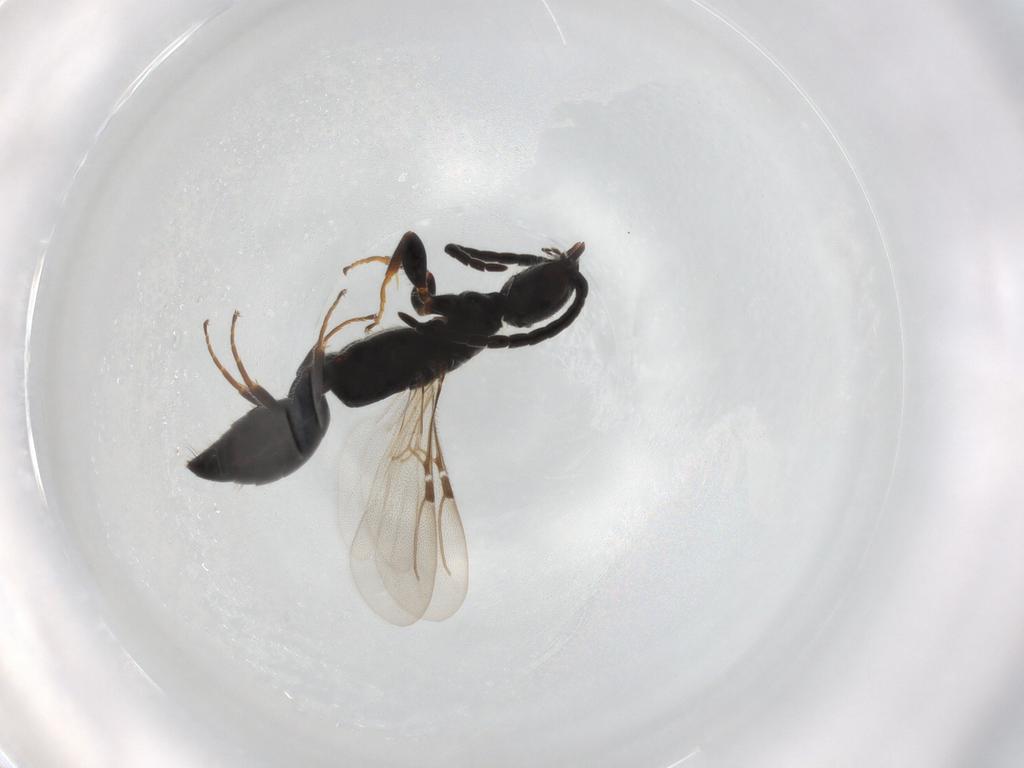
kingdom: Animalia
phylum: Arthropoda
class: Insecta
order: Hymenoptera
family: Bethylidae
